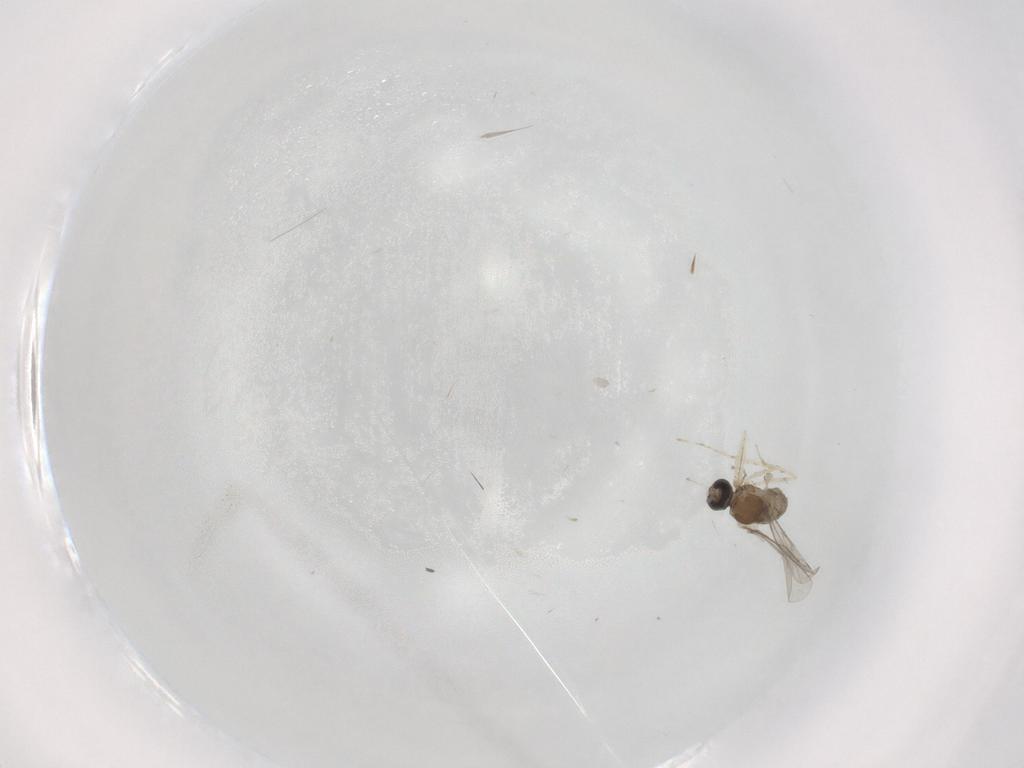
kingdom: Animalia
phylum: Arthropoda
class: Insecta
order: Diptera
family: Cecidomyiidae
